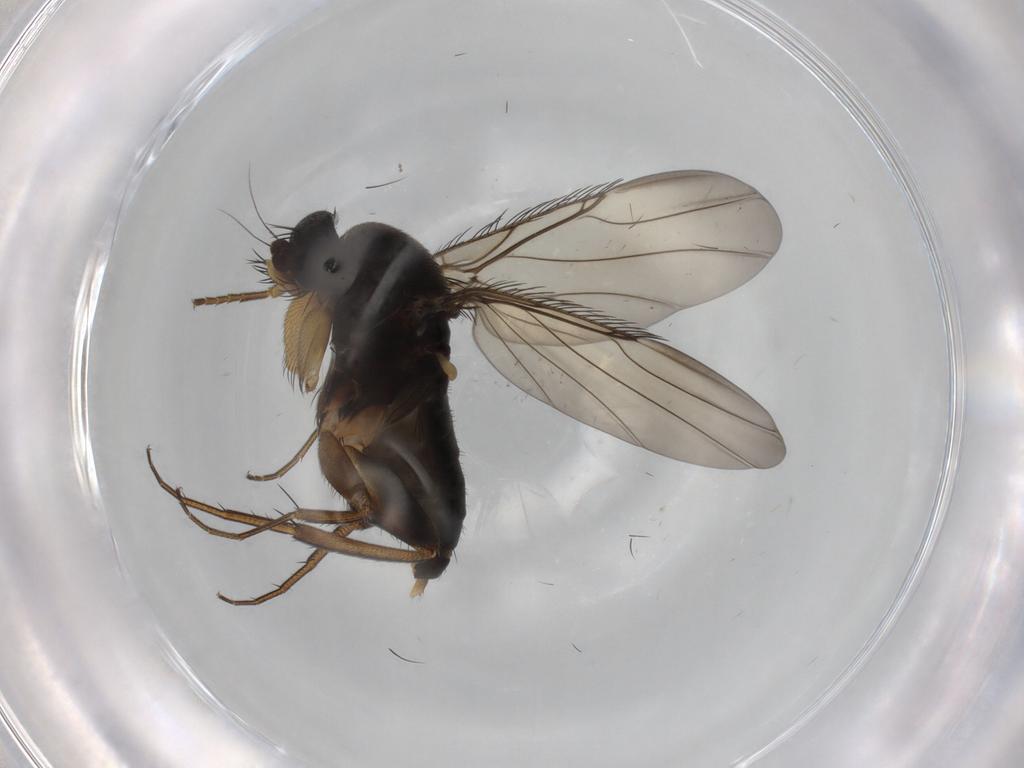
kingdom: Animalia
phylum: Arthropoda
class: Insecta
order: Diptera
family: Phoridae
